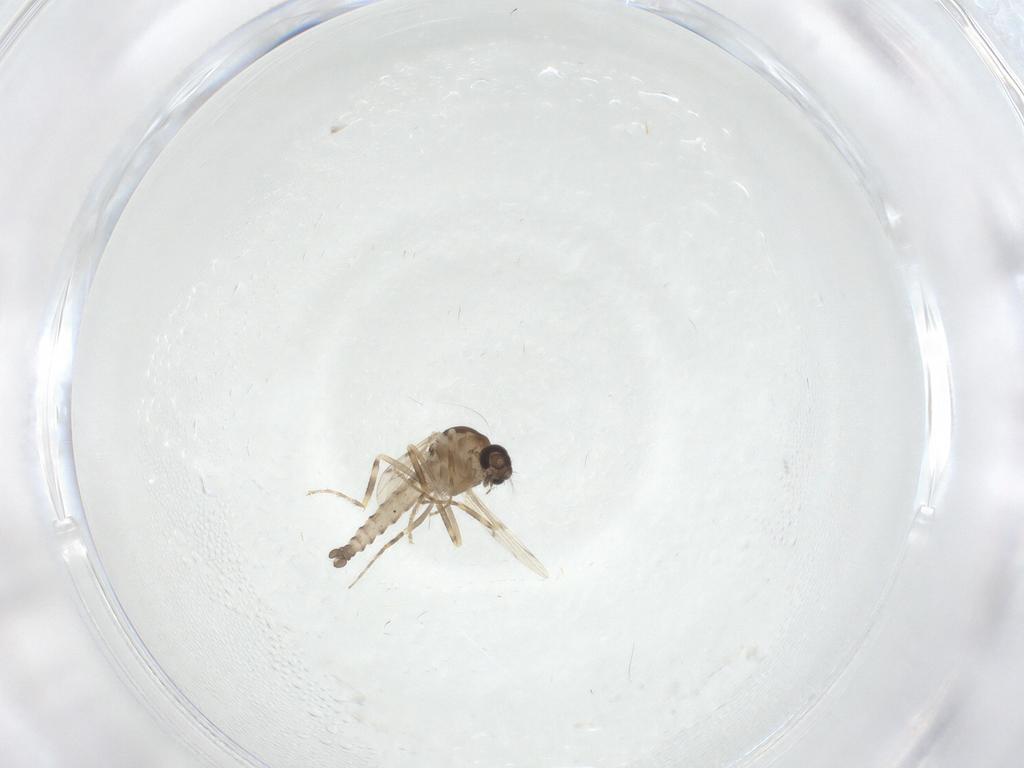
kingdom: Animalia
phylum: Arthropoda
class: Insecta
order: Diptera
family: Ceratopogonidae
